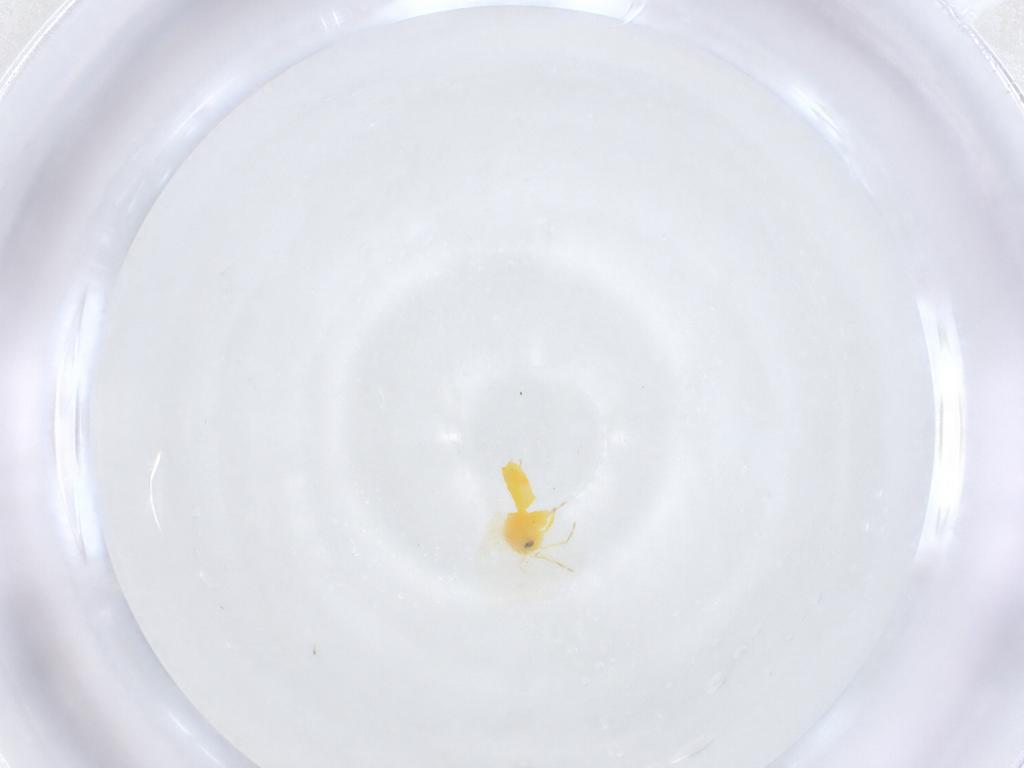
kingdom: Animalia
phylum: Arthropoda
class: Insecta
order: Hemiptera
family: Aleyrodidae
